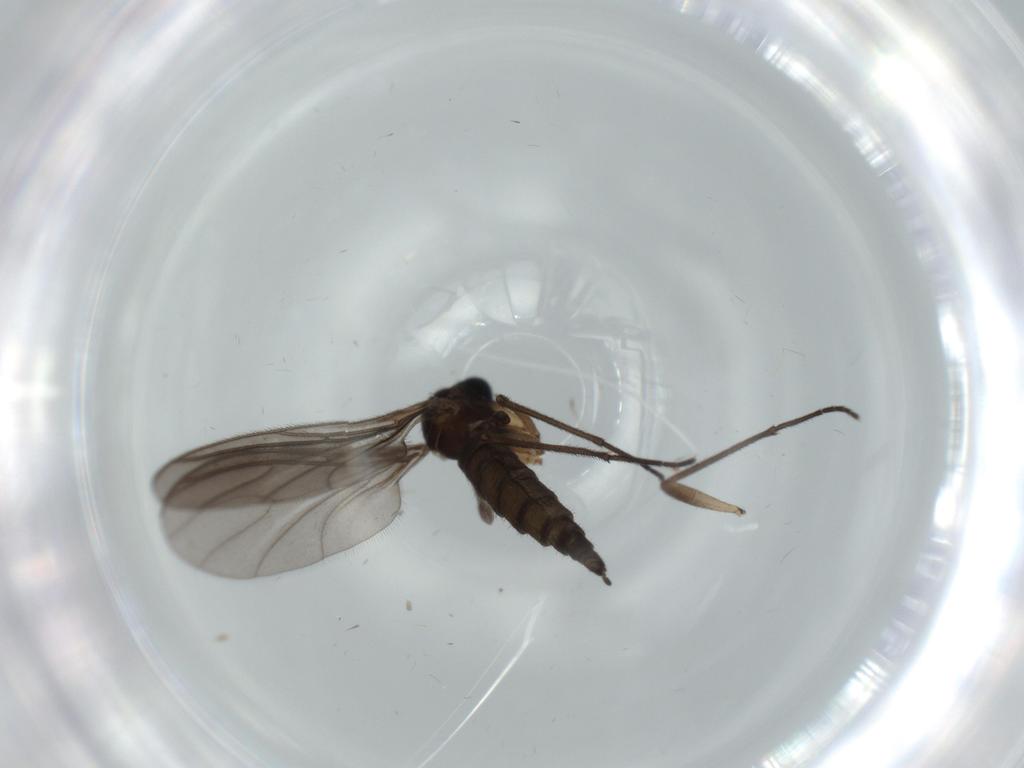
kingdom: Animalia
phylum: Arthropoda
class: Insecta
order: Diptera
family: Sciaridae
